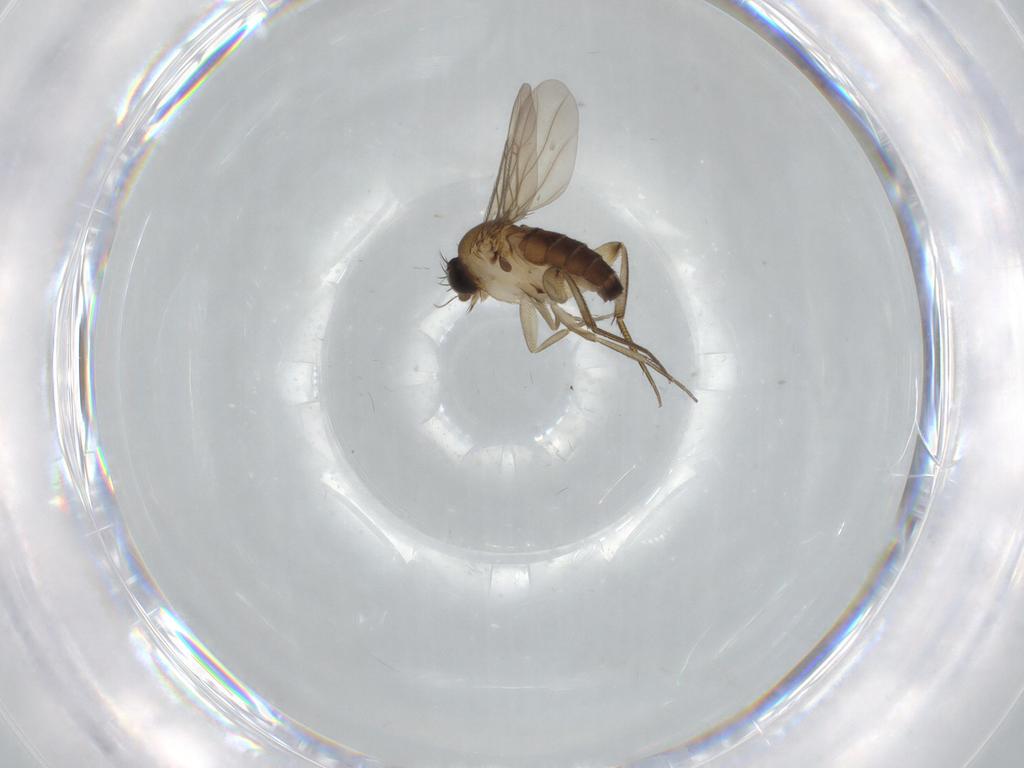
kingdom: Animalia
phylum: Arthropoda
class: Insecta
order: Diptera
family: Phoridae
